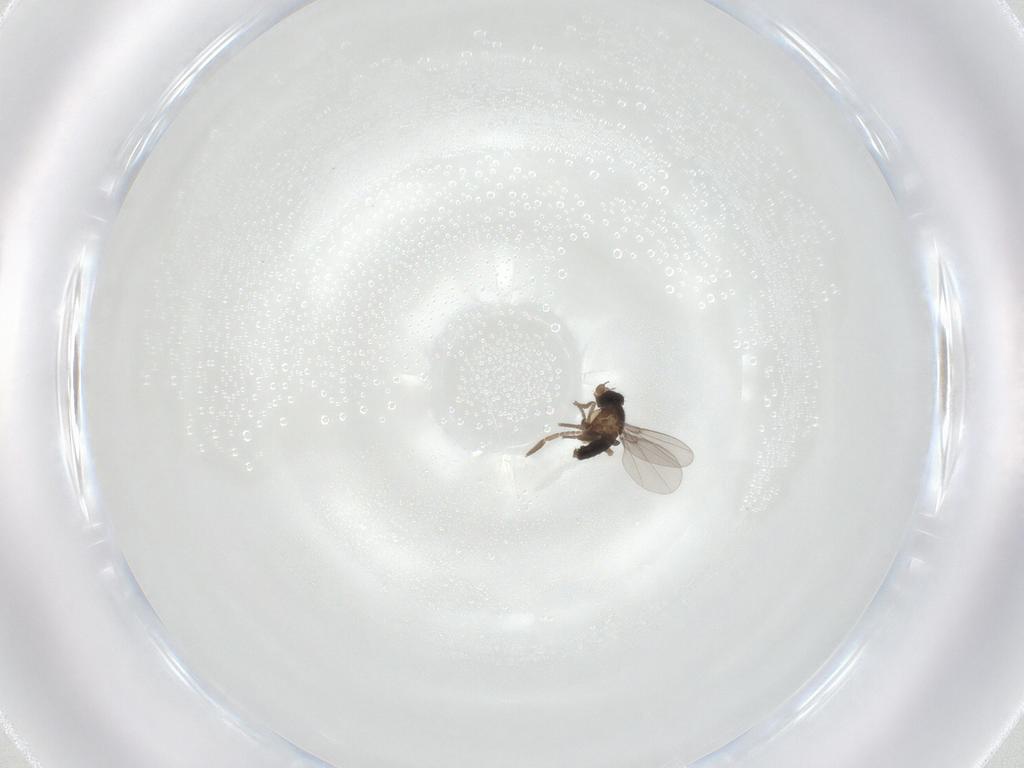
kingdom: Animalia
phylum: Arthropoda
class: Insecta
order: Diptera
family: Phoridae
